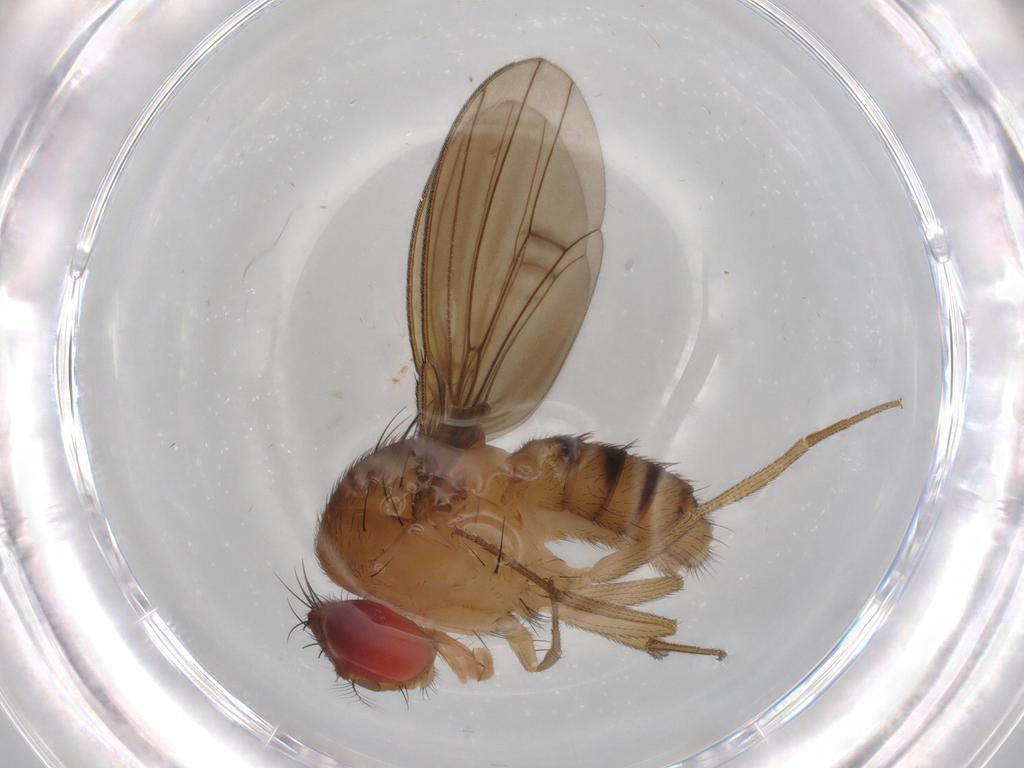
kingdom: Animalia
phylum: Arthropoda
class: Insecta
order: Diptera
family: Drosophilidae
